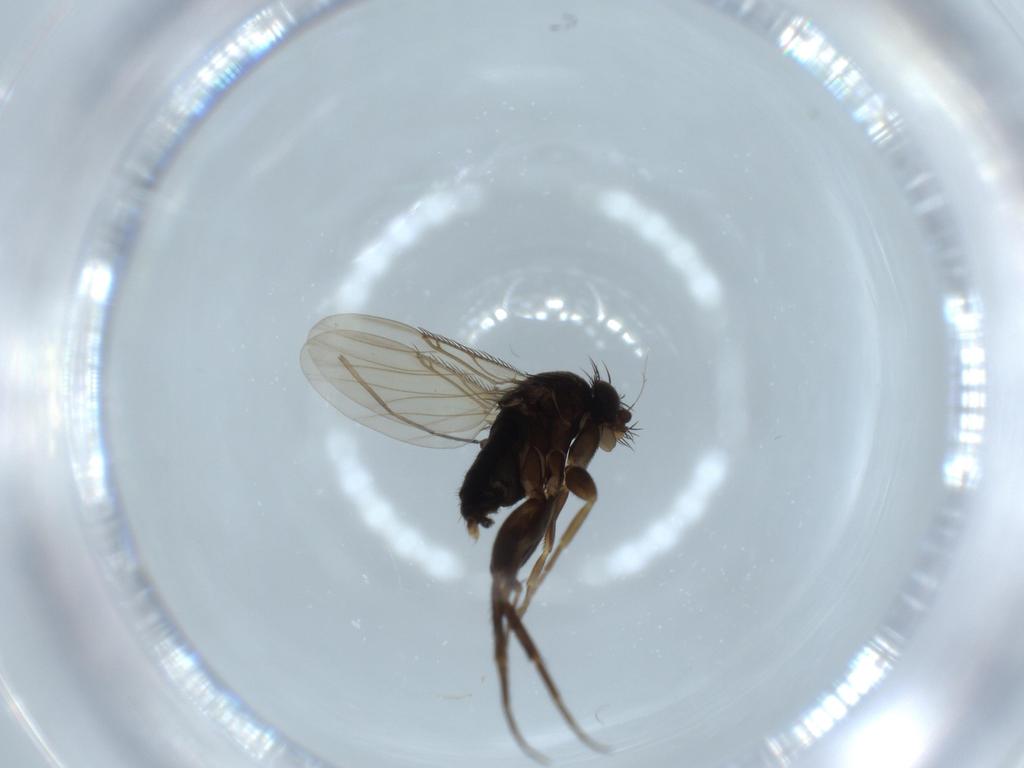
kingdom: Animalia
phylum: Arthropoda
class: Insecta
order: Diptera
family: Phoridae
